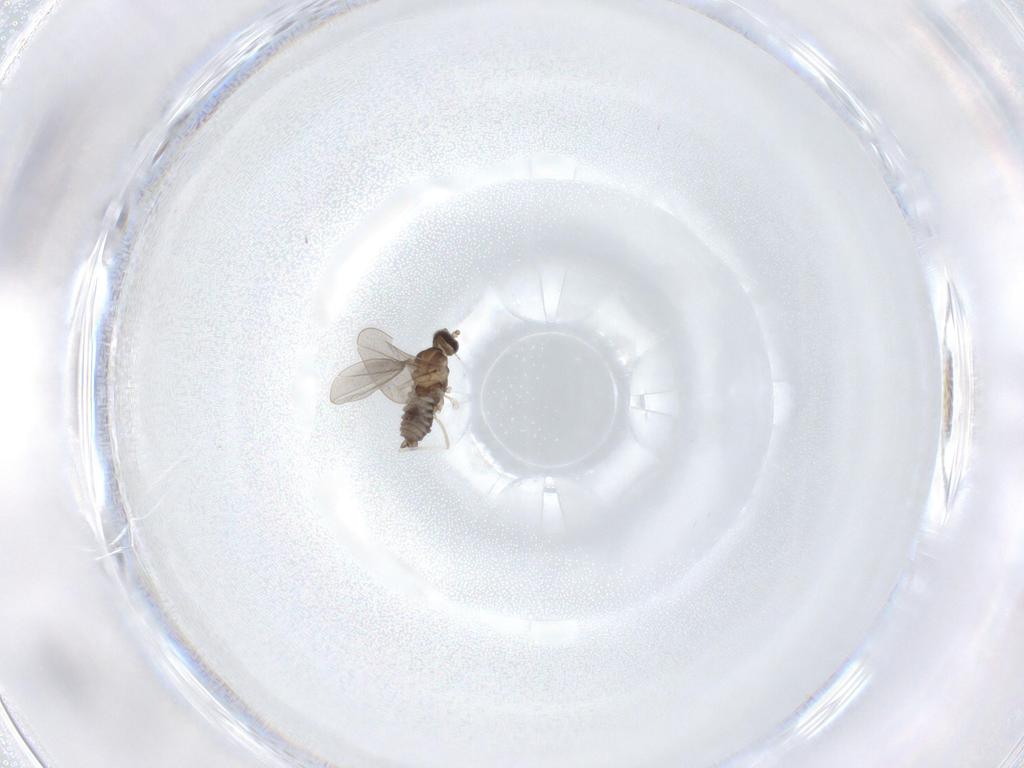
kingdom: Animalia
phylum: Arthropoda
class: Insecta
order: Diptera
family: Cecidomyiidae
